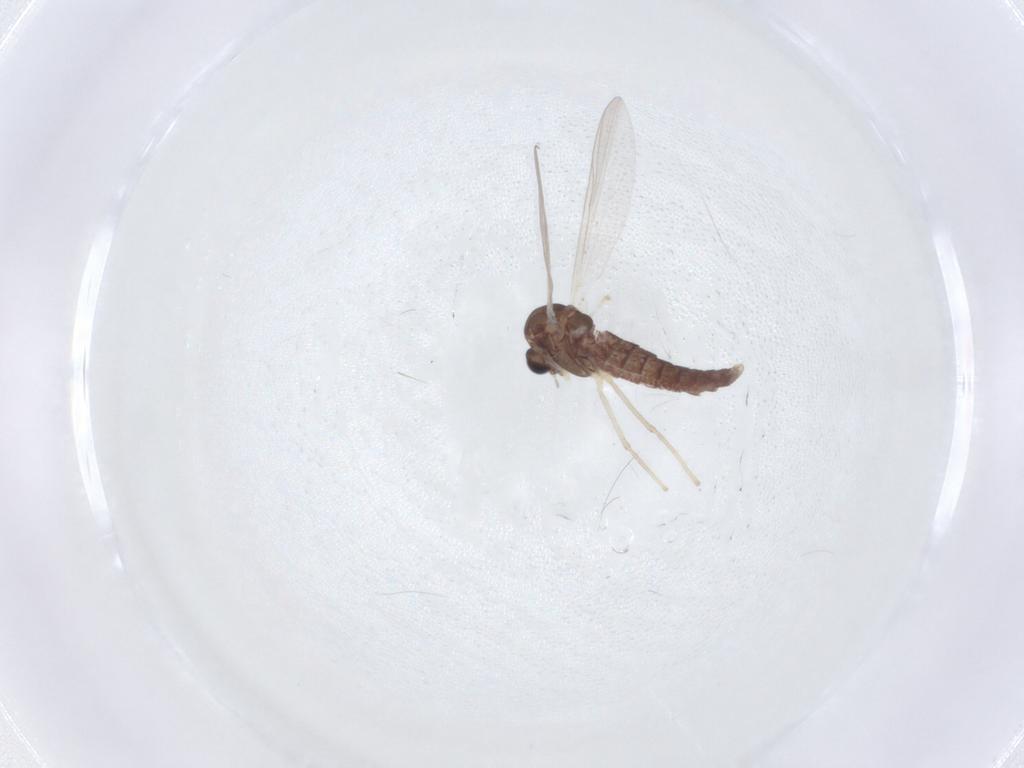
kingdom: Animalia
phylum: Arthropoda
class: Insecta
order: Diptera
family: Chironomidae
